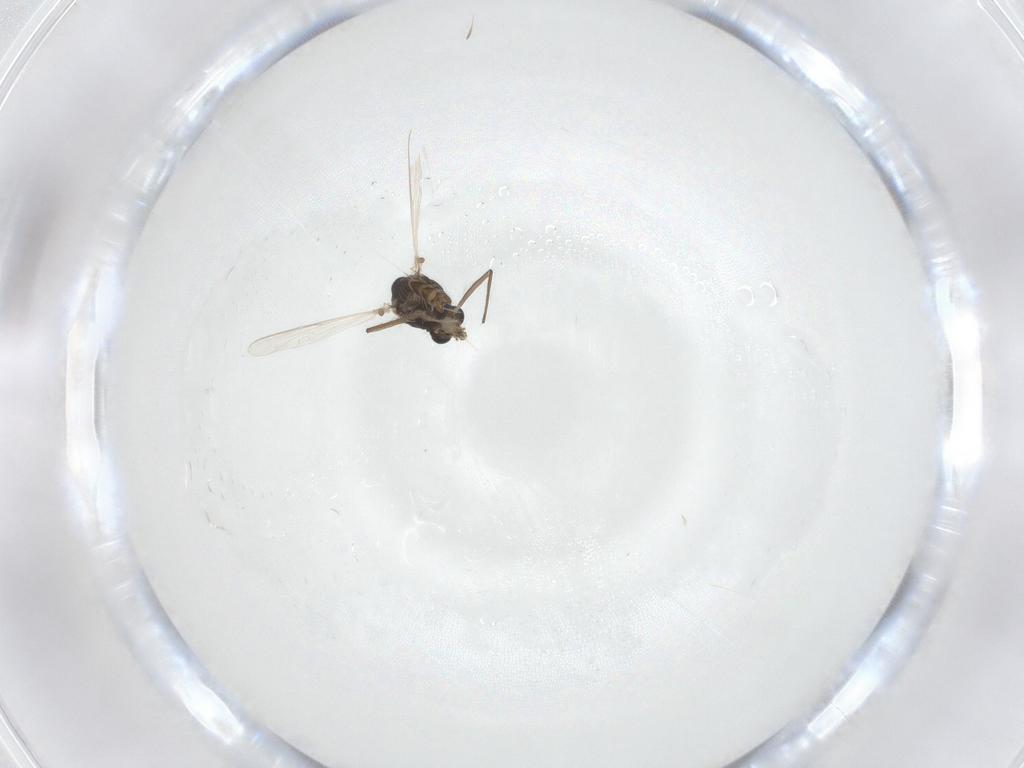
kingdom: Animalia
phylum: Arthropoda
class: Insecta
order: Diptera
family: Chironomidae
